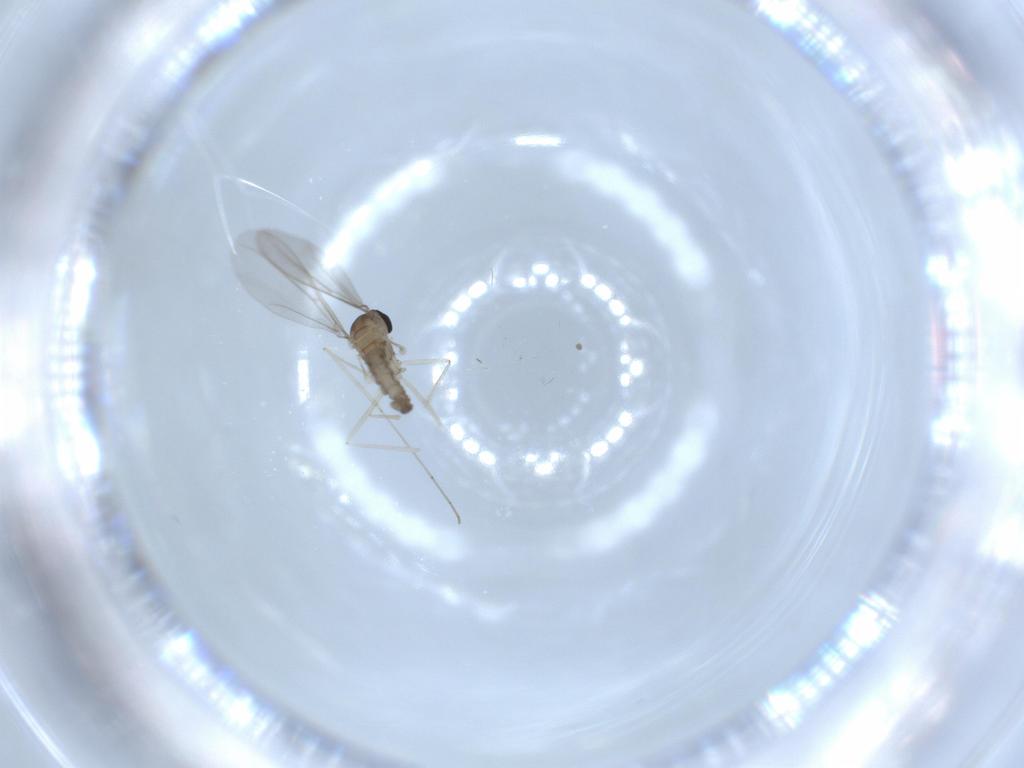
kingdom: Animalia
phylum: Arthropoda
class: Insecta
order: Diptera
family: Cecidomyiidae
